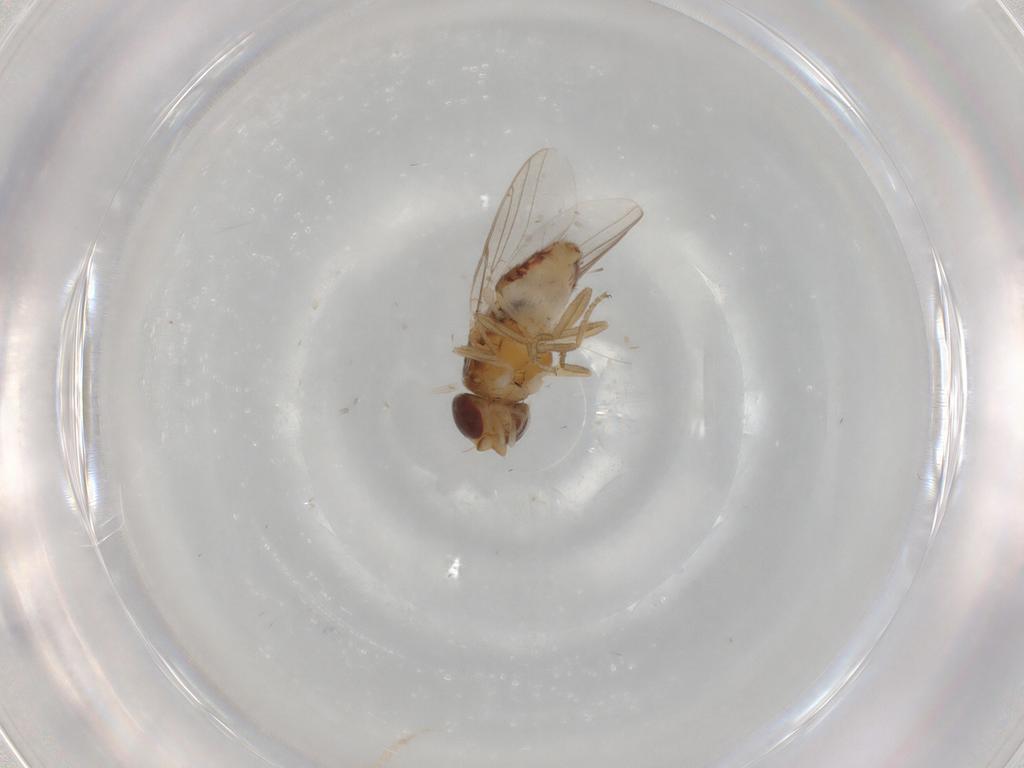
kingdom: Animalia
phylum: Arthropoda
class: Insecta
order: Diptera
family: Chloropidae
